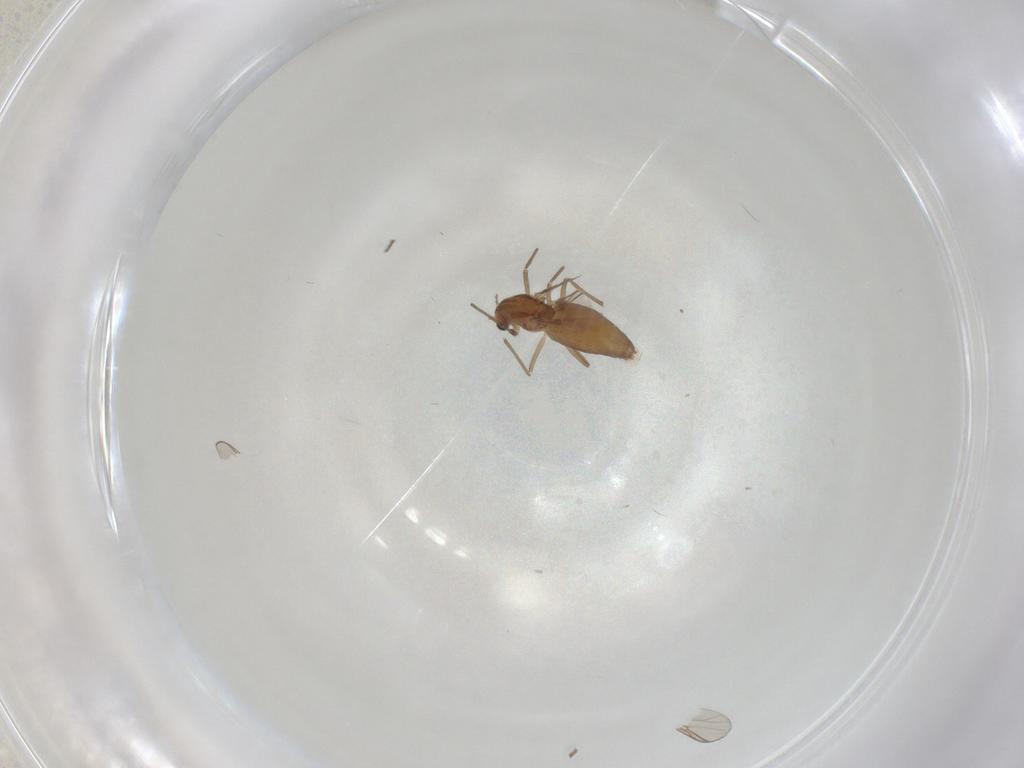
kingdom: Animalia
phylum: Arthropoda
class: Insecta
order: Diptera
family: Chironomidae
